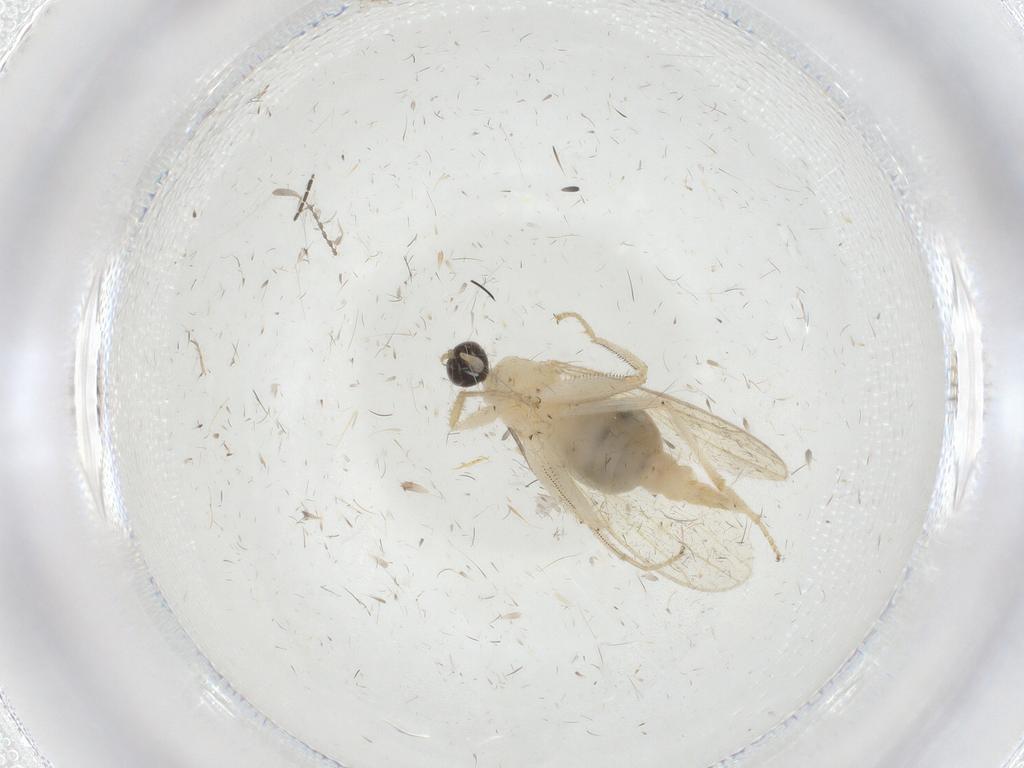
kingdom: Animalia
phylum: Arthropoda
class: Insecta
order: Diptera
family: Hybotidae
